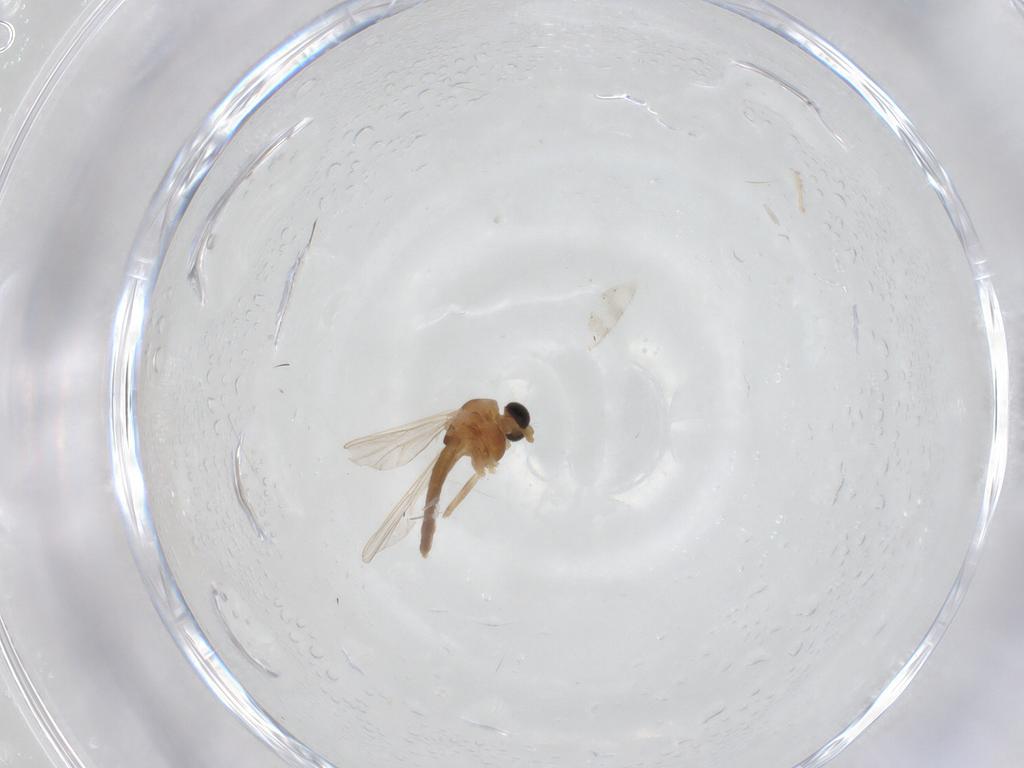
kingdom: Animalia
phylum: Arthropoda
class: Insecta
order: Diptera
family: Chironomidae
